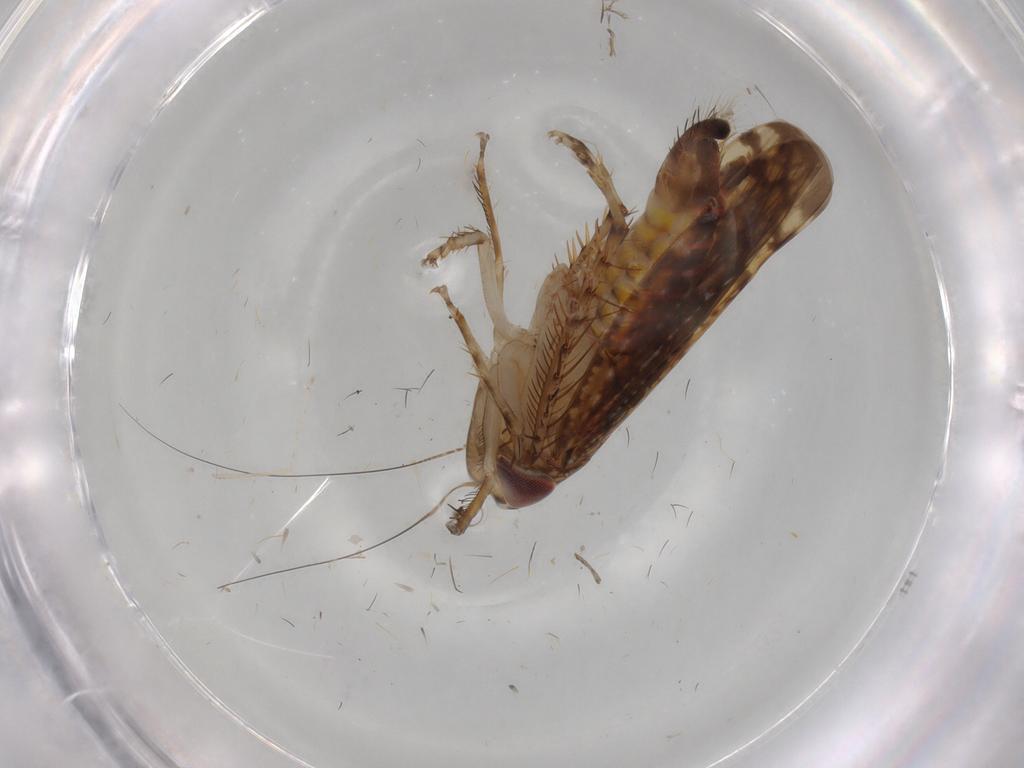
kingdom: Animalia
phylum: Arthropoda
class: Insecta
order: Hemiptera
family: Cicadellidae
